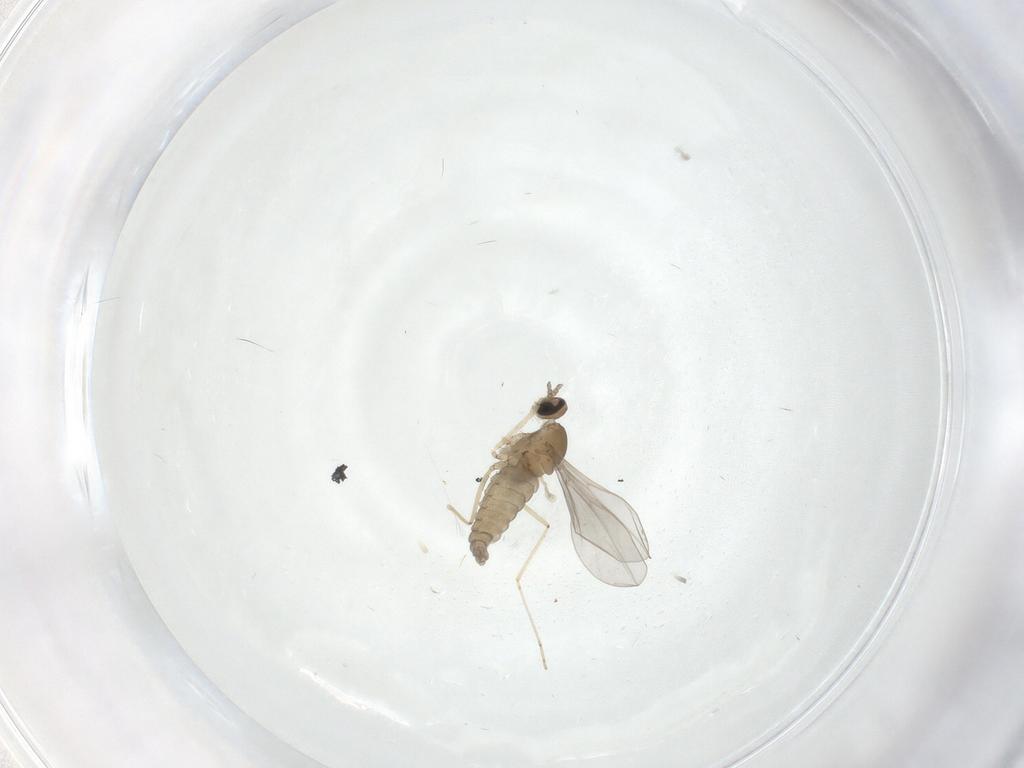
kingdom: Animalia
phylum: Arthropoda
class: Insecta
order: Diptera
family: Cecidomyiidae
